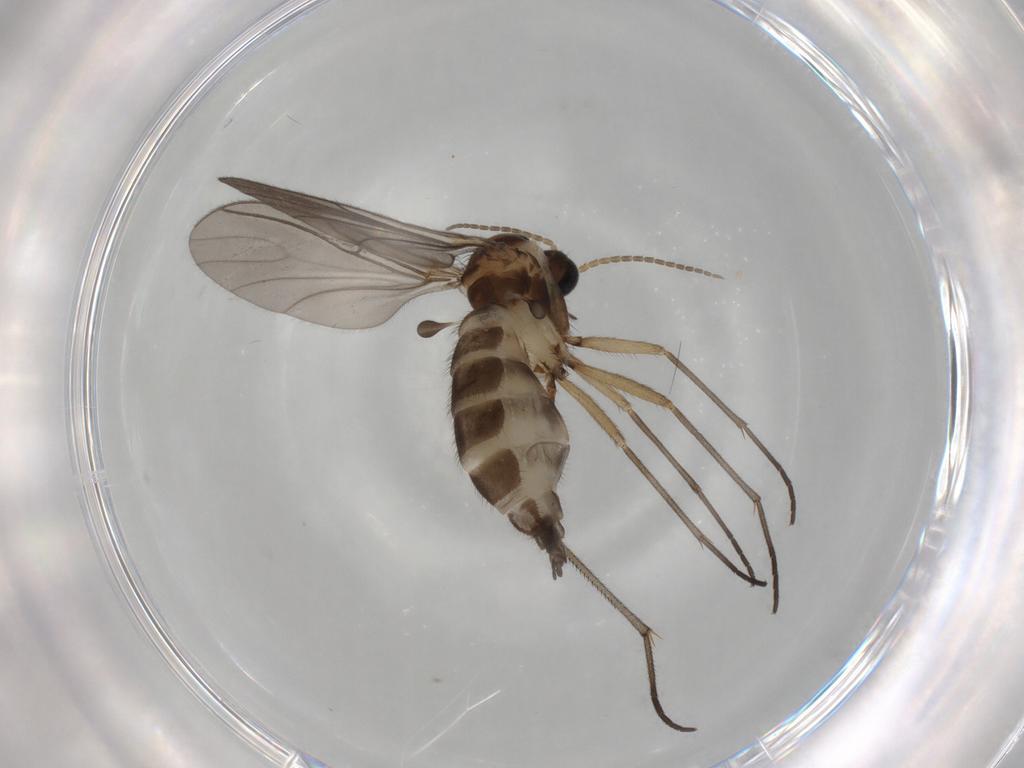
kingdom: Animalia
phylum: Arthropoda
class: Insecta
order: Diptera
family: Sciaridae
